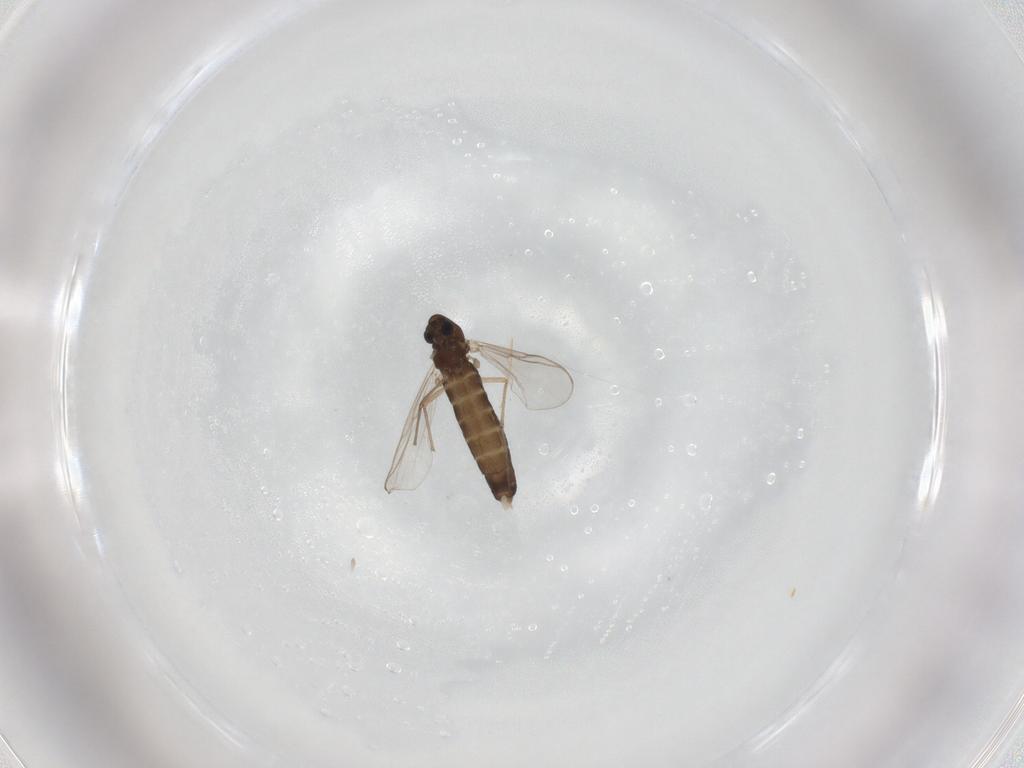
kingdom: Animalia
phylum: Arthropoda
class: Insecta
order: Diptera
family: Chironomidae
